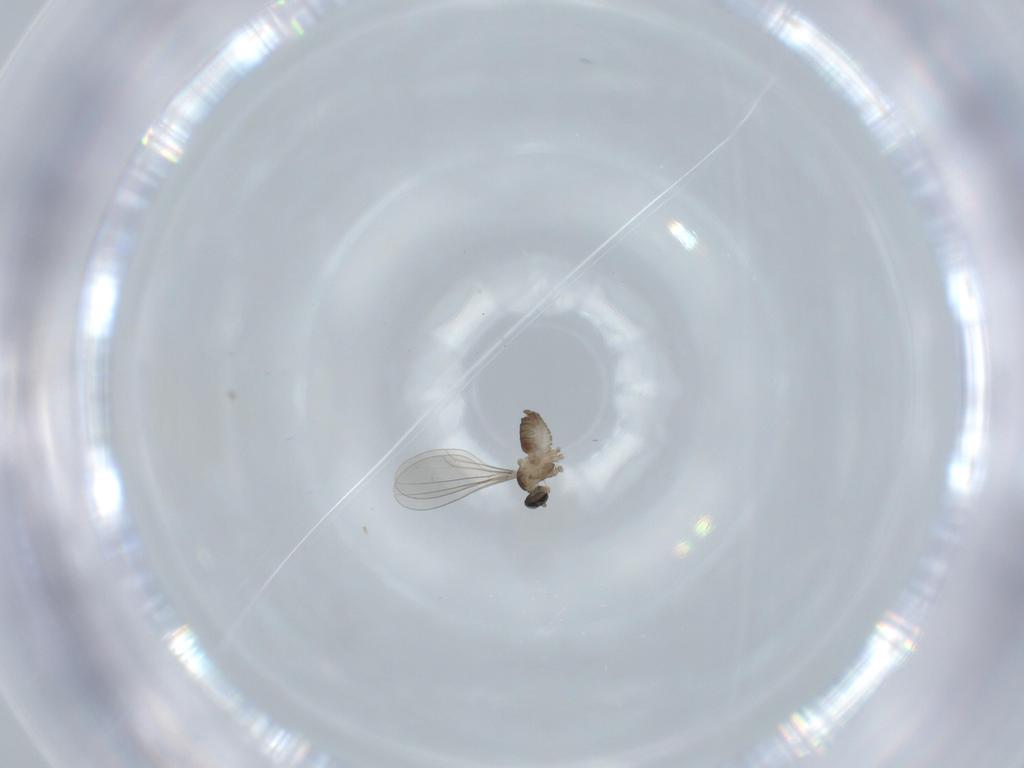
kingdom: Animalia
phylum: Arthropoda
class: Insecta
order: Diptera
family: Cecidomyiidae
